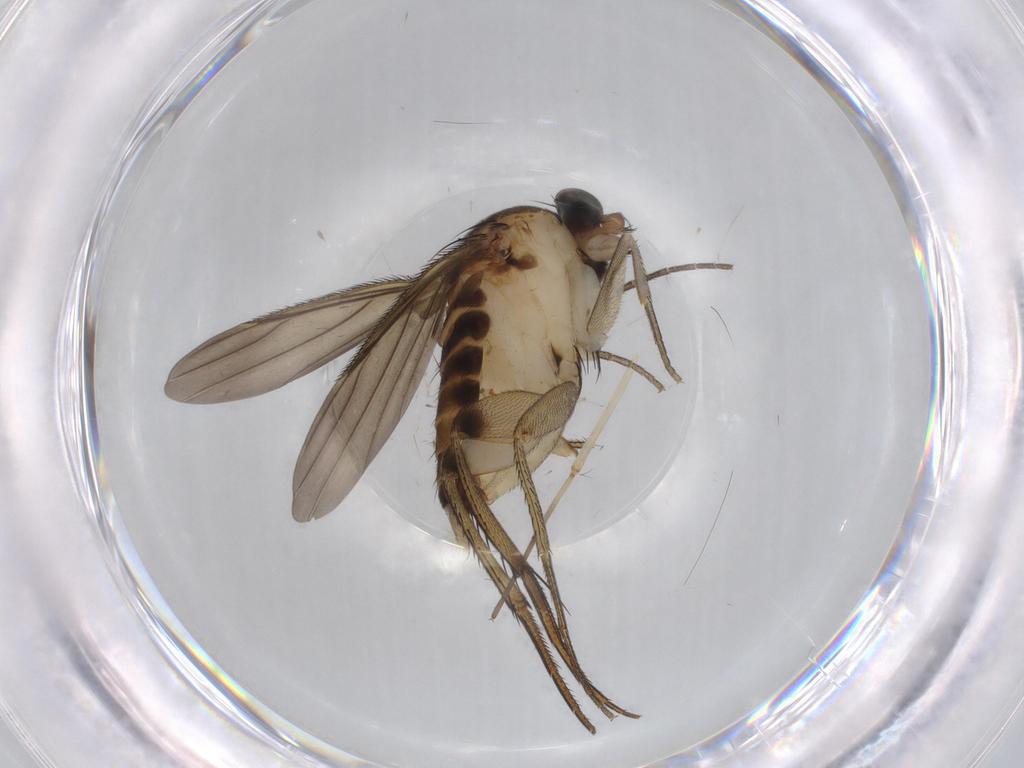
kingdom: Animalia
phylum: Arthropoda
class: Insecta
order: Diptera
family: Phoridae
